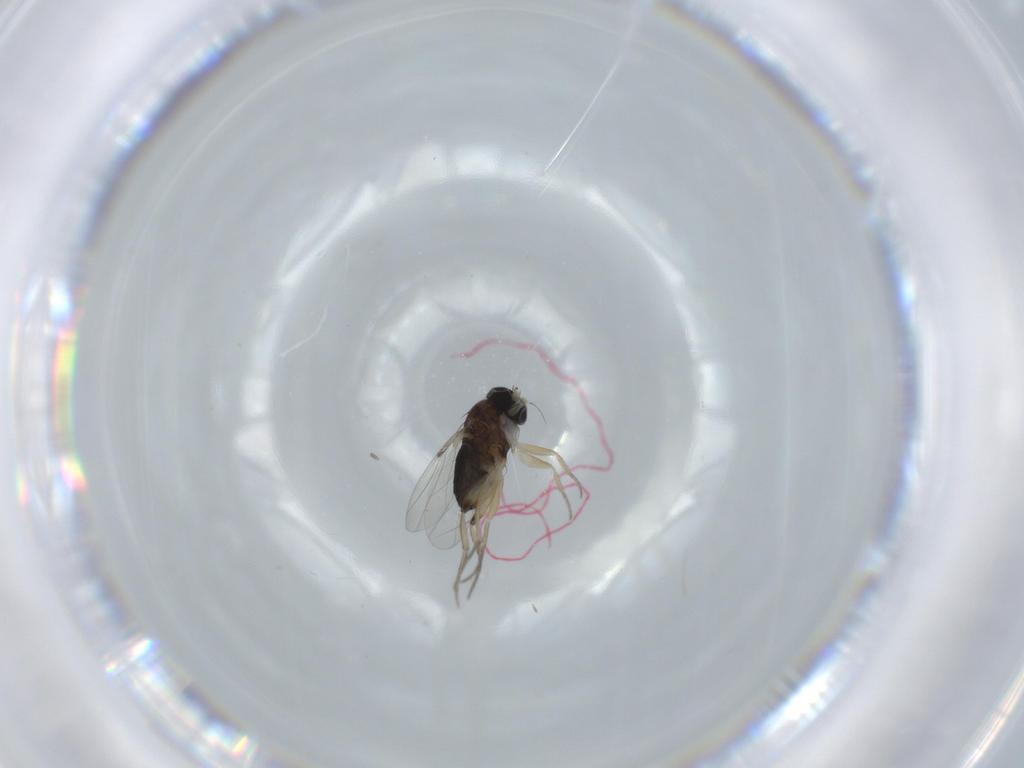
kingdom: Animalia
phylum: Arthropoda
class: Insecta
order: Diptera
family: Phoridae
